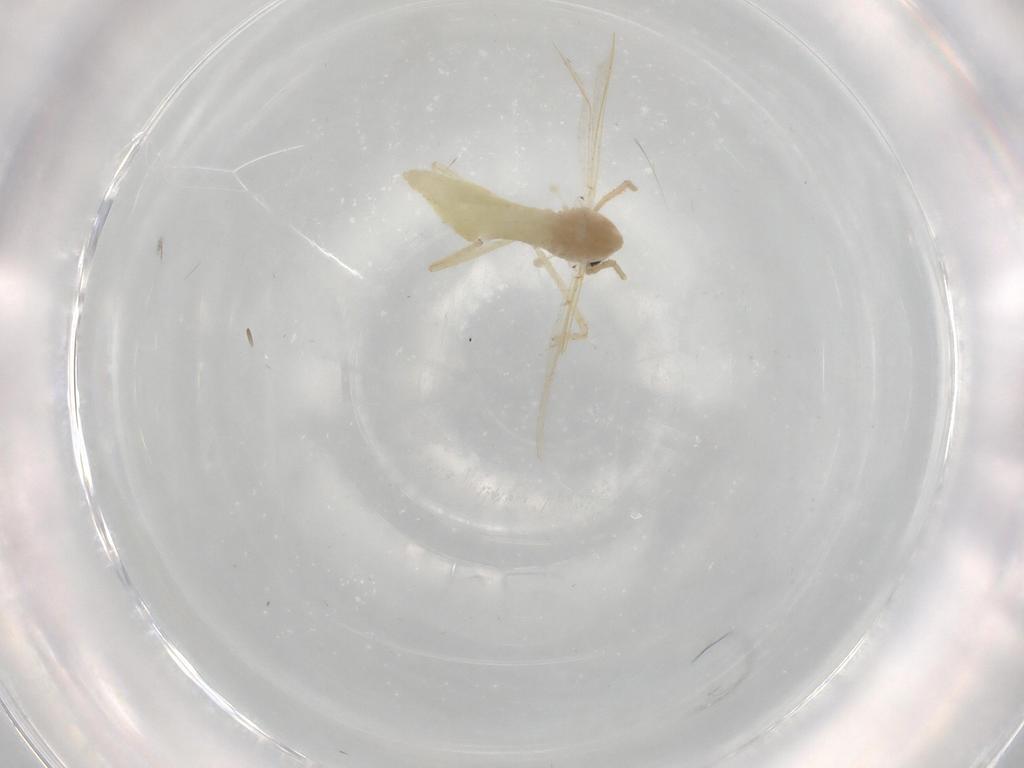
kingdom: Animalia
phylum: Arthropoda
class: Insecta
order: Diptera
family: Chironomidae
